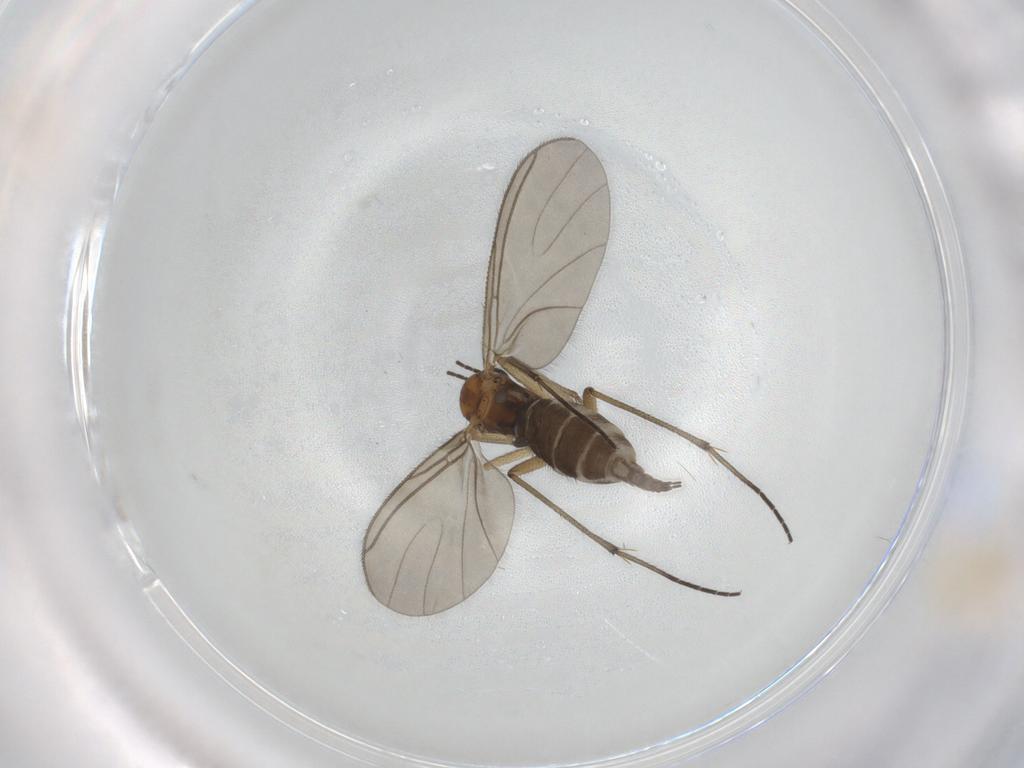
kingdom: Animalia
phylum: Arthropoda
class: Insecta
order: Diptera
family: Sciaridae
